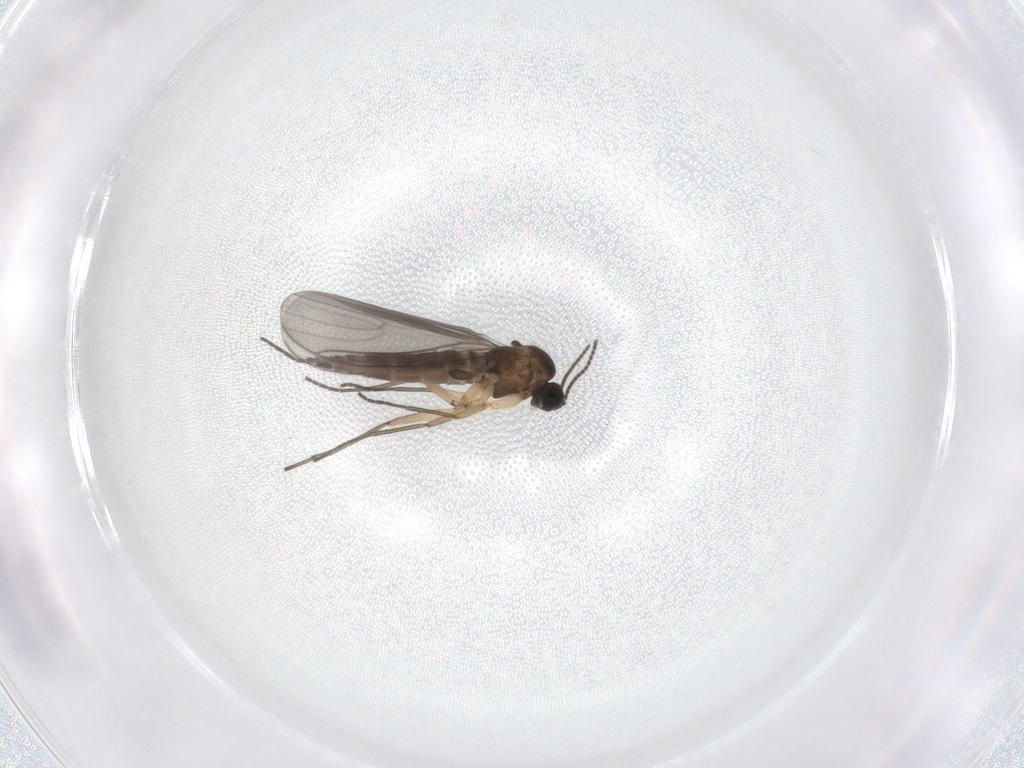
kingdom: Animalia
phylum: Arthropoda
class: Insecta
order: Diptera
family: Sciaridae
